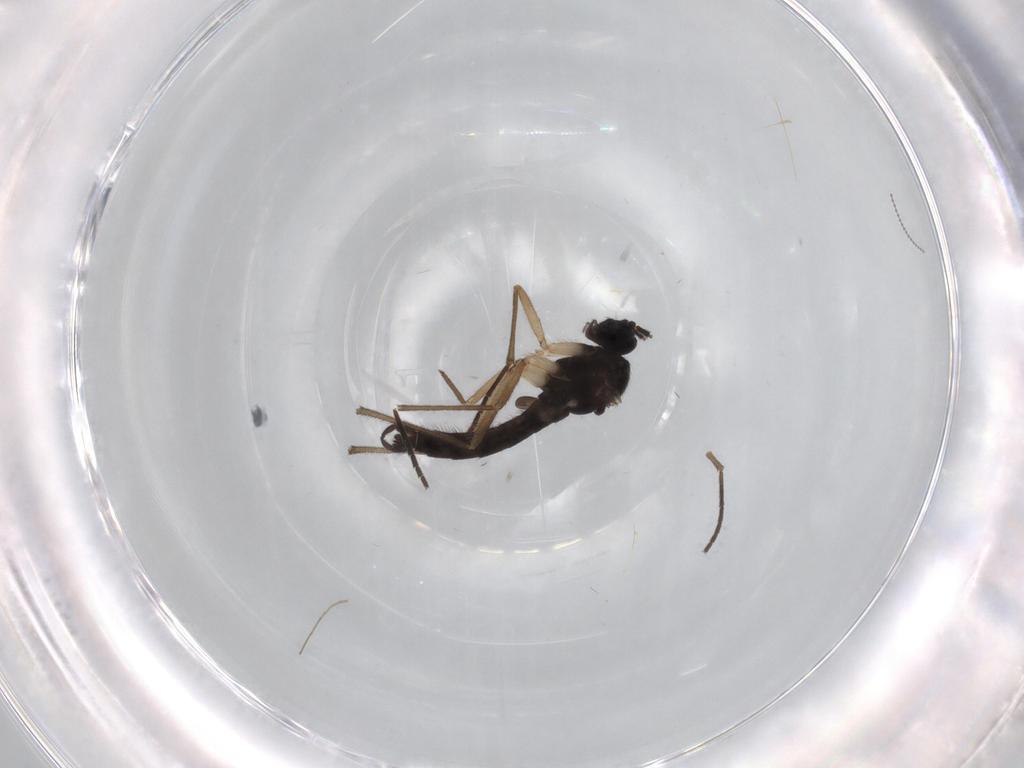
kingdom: Animalia
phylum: Arthropoda
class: Insecta
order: Diptera
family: Sciaridae
